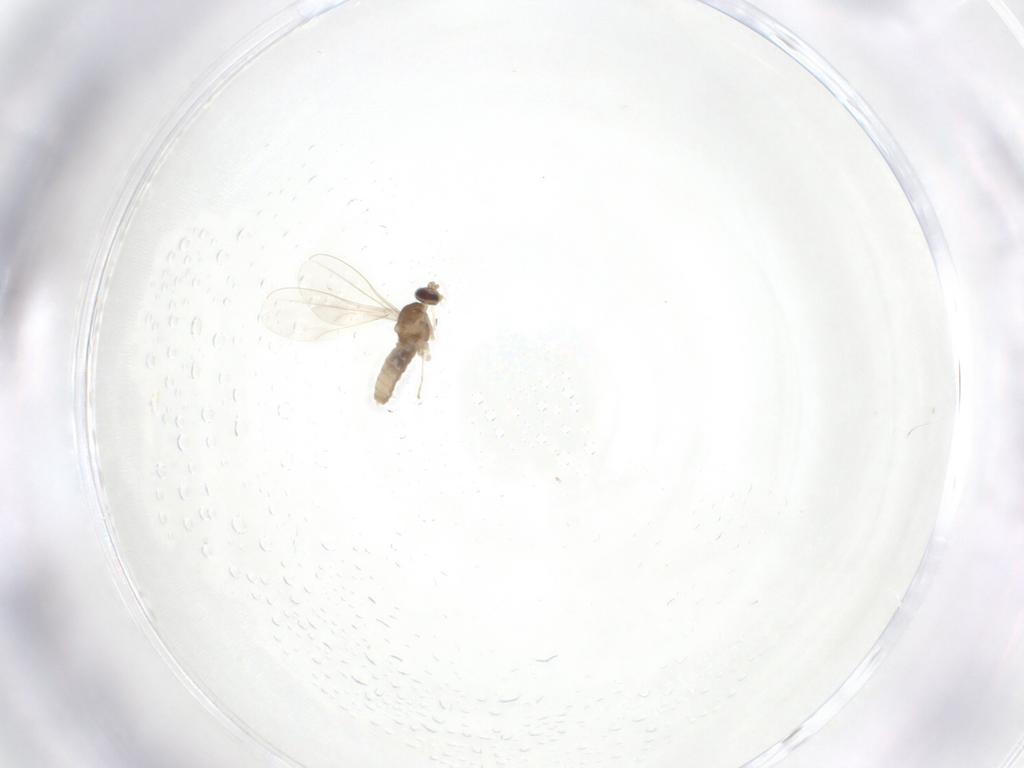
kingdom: Animalia
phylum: Arthropoda
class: Insecta
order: Diptera
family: Cecidomyiidae
